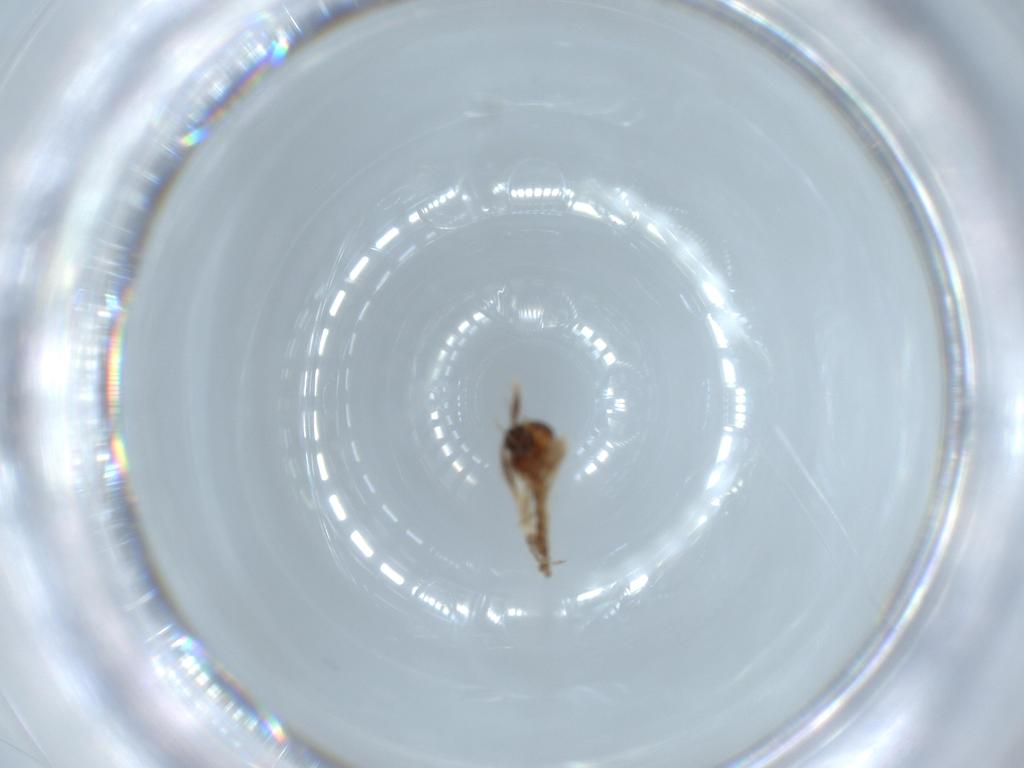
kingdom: Animalia
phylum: Arthropoda
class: Insecta
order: Diptera
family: Ceratopogonidae
